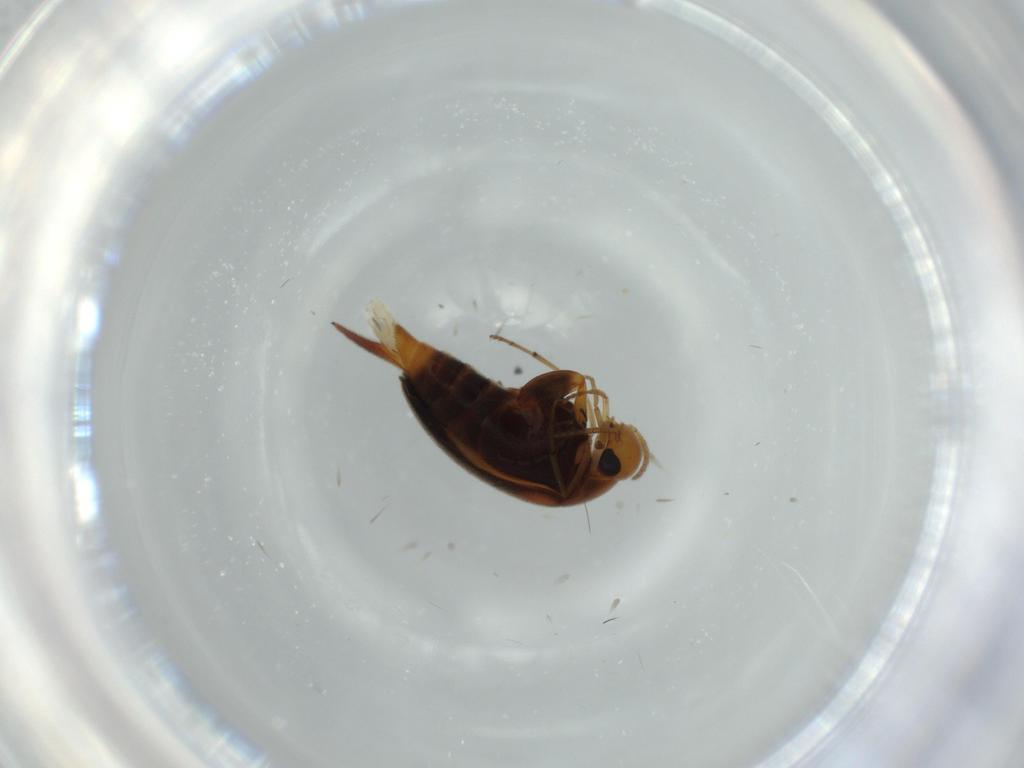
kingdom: Animalia
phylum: Arthropoda
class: Insecta
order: Coleoptera
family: Mordellidae
